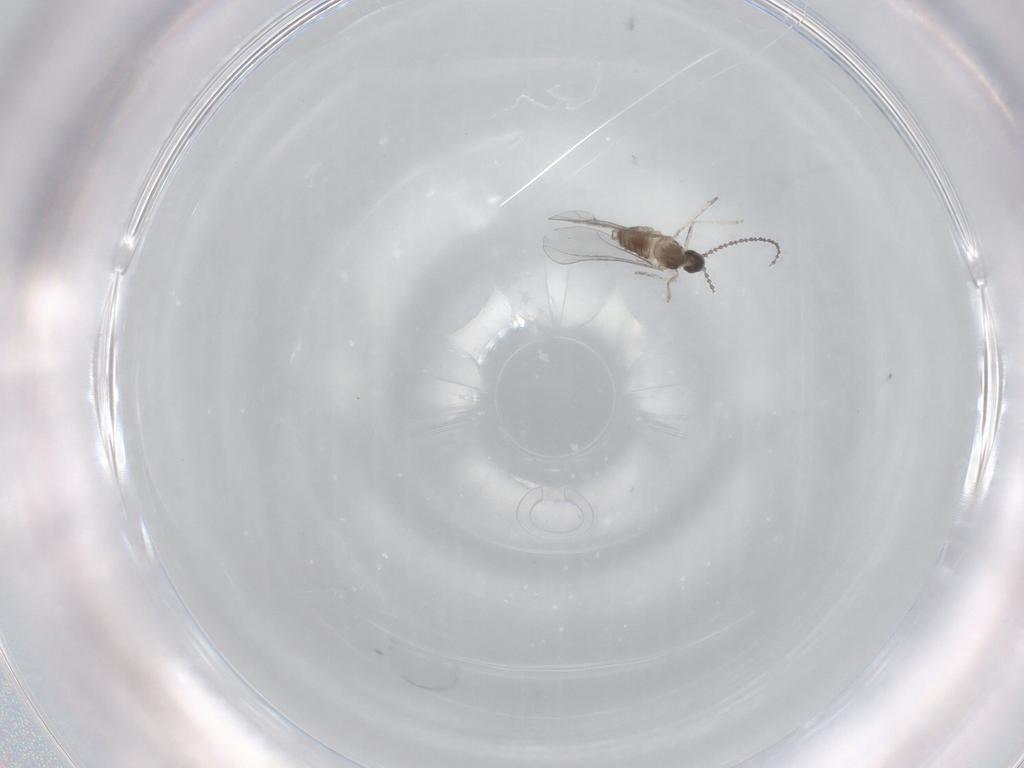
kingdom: Animalia
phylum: Arthropoda
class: Insecta
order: Diptera
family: Cecidomyiidae
